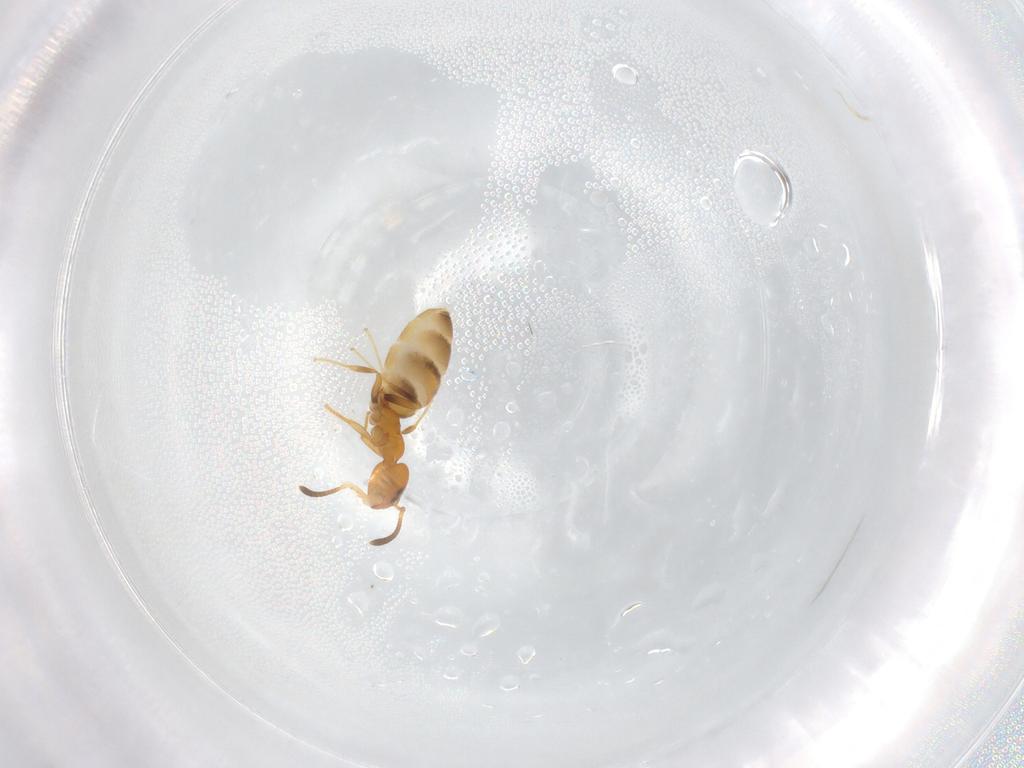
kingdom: Animalia
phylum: Arthropoda
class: Insecta
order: Hymenoptera
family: Formicidae
